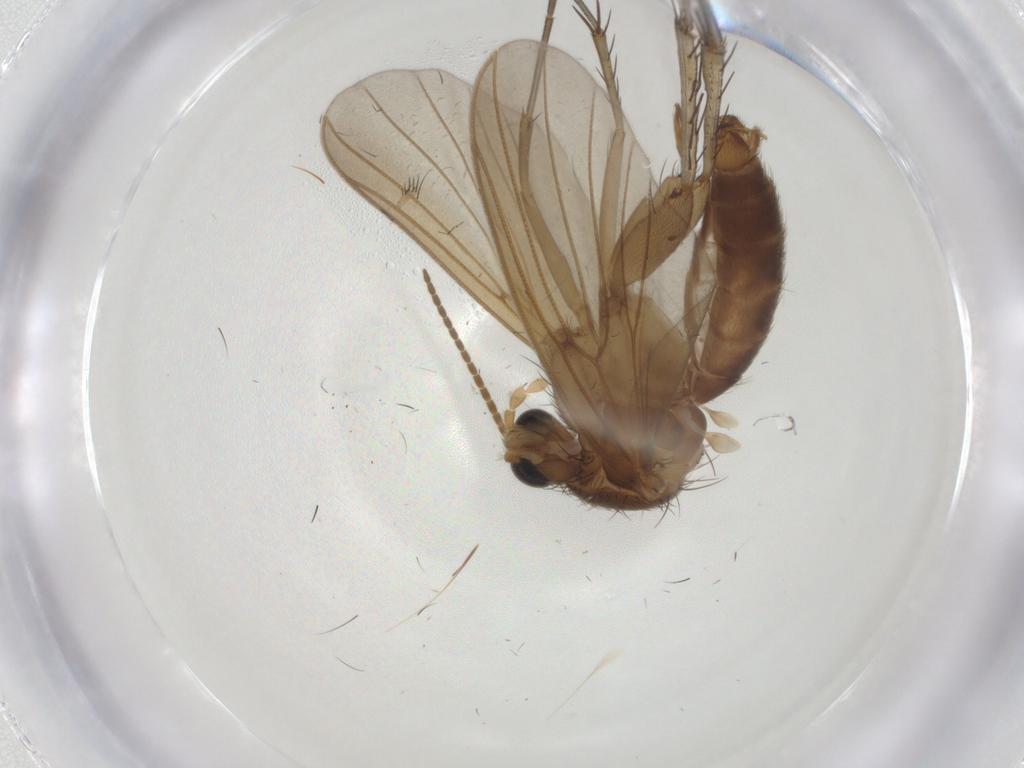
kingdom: Animalia
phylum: Arthropoda
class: Insecta
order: Diptera
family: Mycetophilidae
